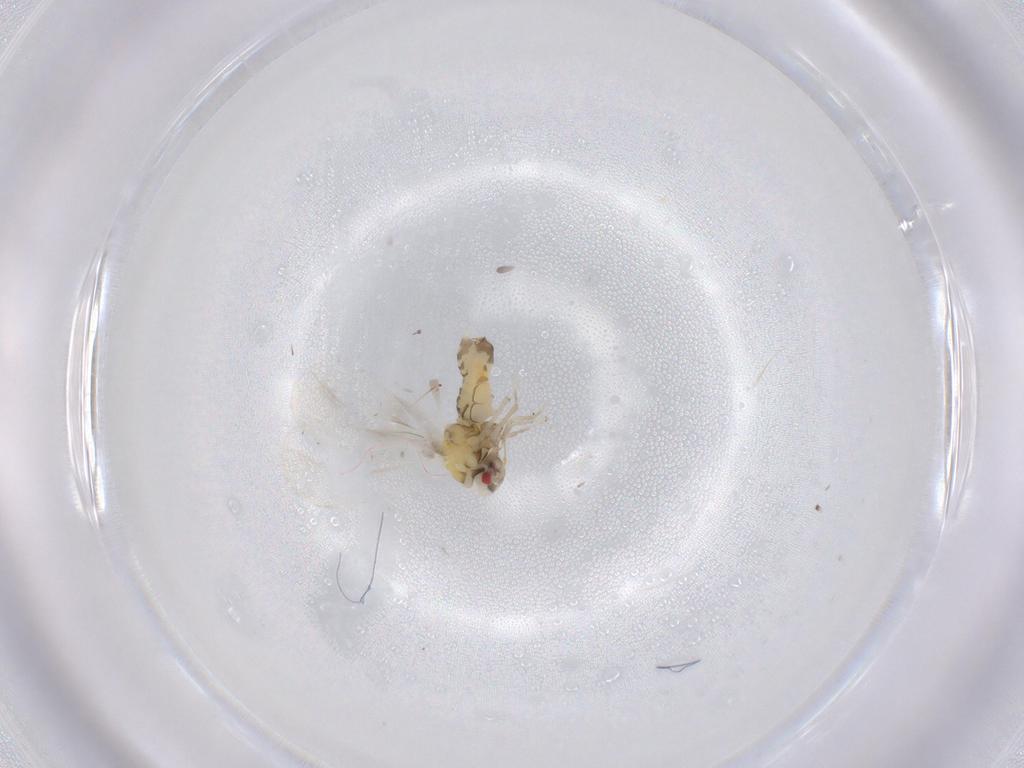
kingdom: Animalia
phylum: Arthropoda
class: Insecta
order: Hemiptera
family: Aleyrodidae
